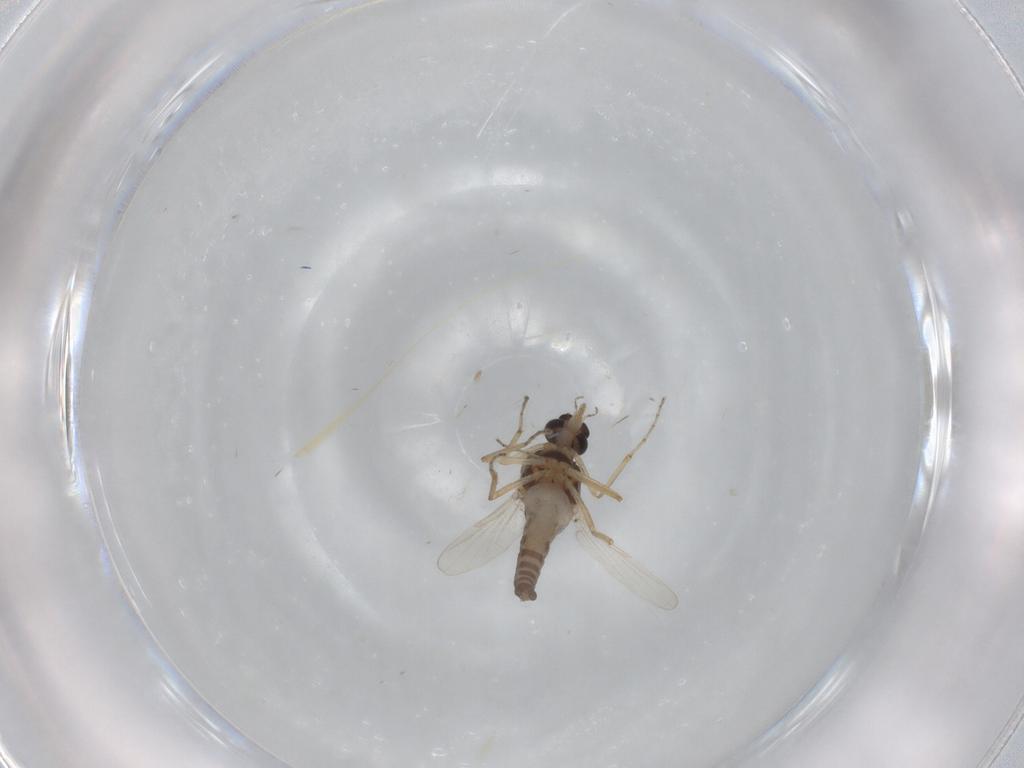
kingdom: Animalia
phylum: Arthropoda
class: Insecta
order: Diptera
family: Ceratopogonidae
